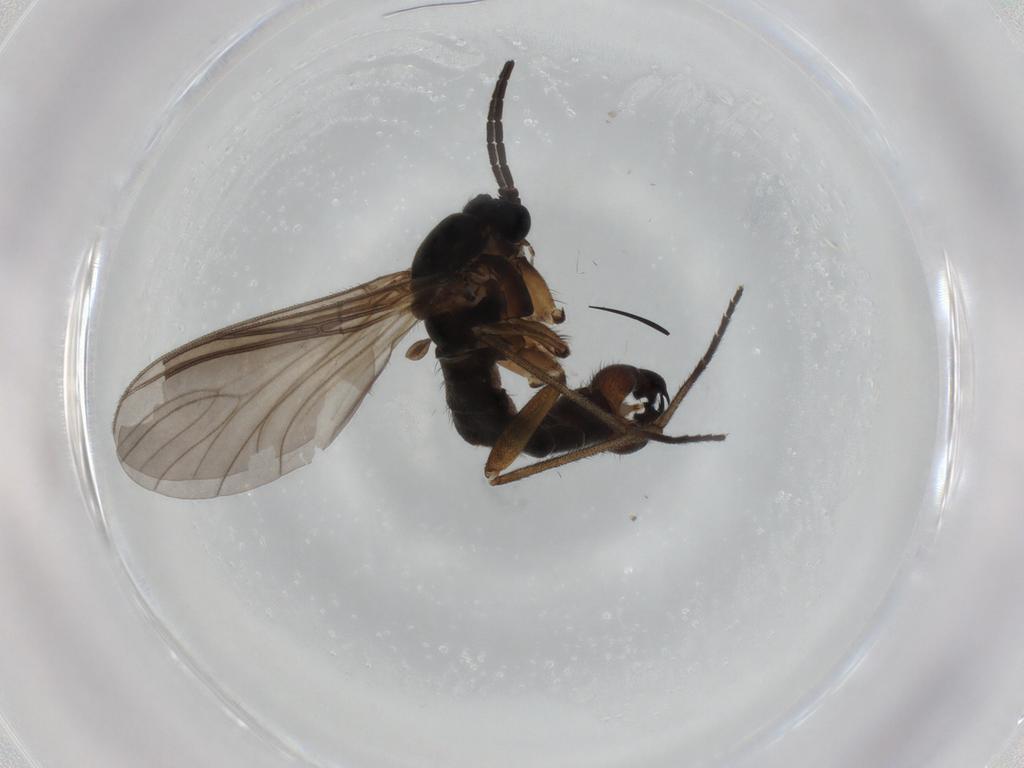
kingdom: Animalia
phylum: Arthropoda
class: Insecta
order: Diptera
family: Sciaridae
